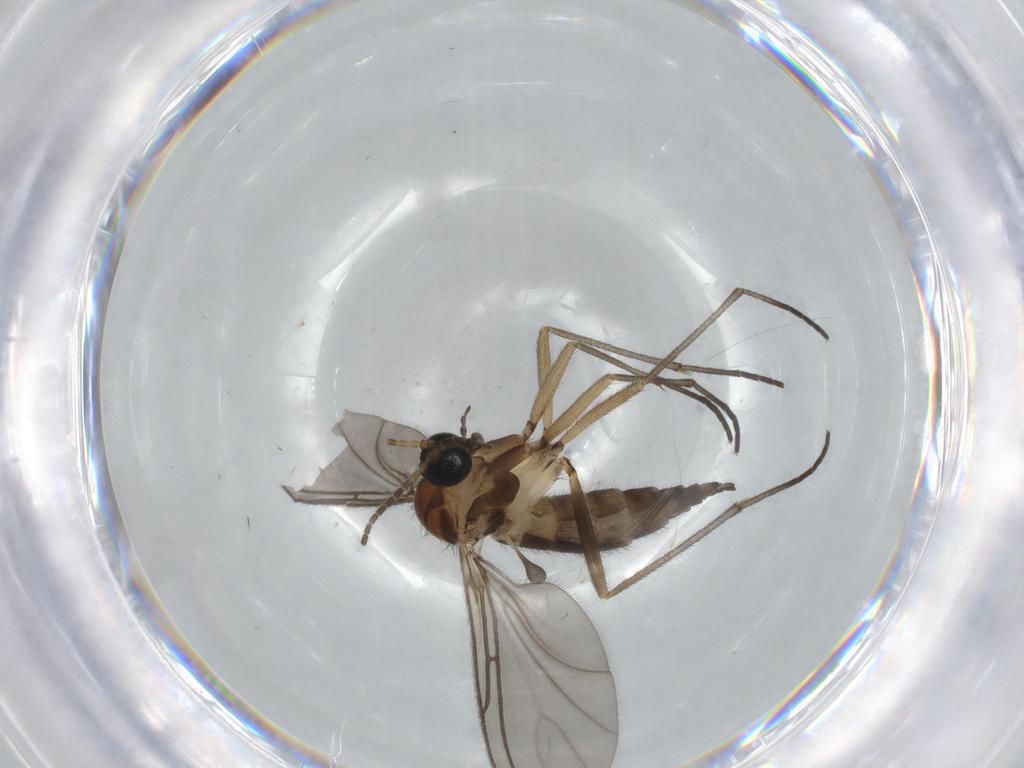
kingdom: Animalia
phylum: Arthropoda
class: Insecta
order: Diptera
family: Sciaridae
